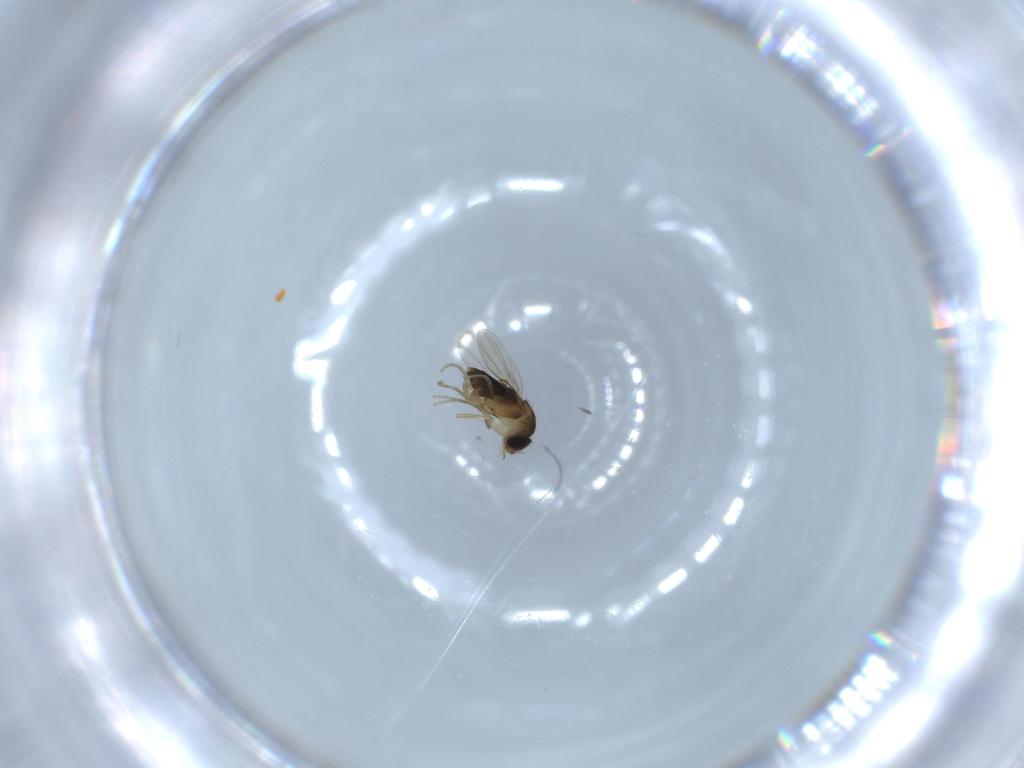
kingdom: Animalia
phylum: Arthropoda
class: Insecta
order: Diptera
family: Phoridae
